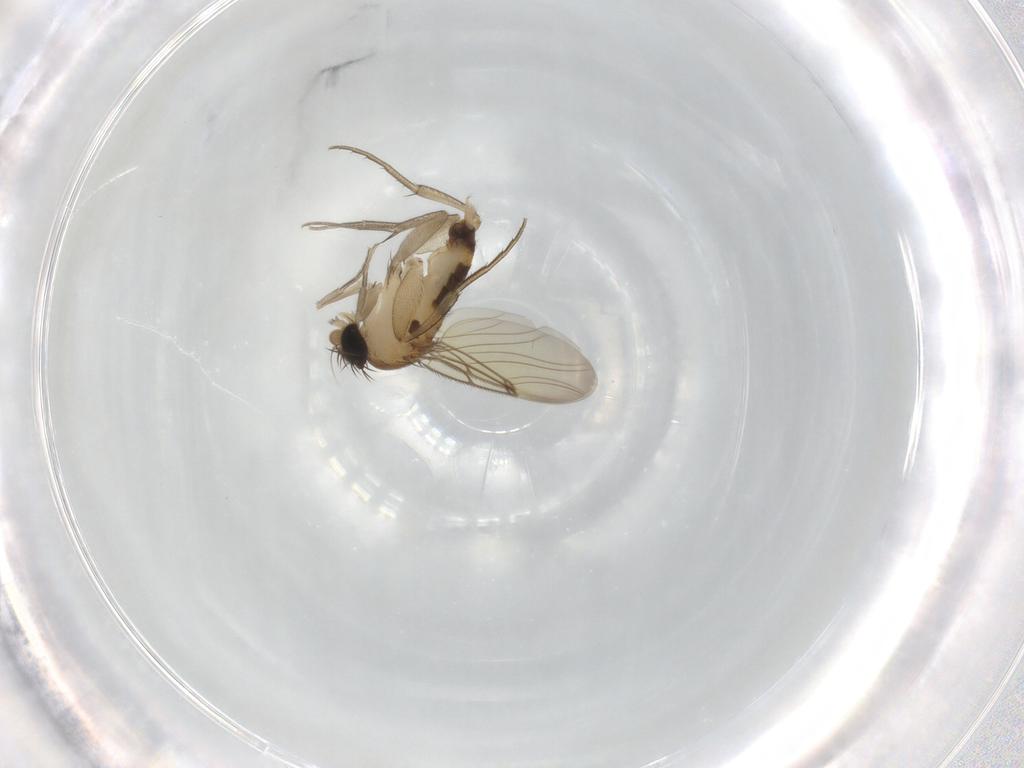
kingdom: Animalia
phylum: Arthropoda
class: Insecta
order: Diptera
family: Phoridae
